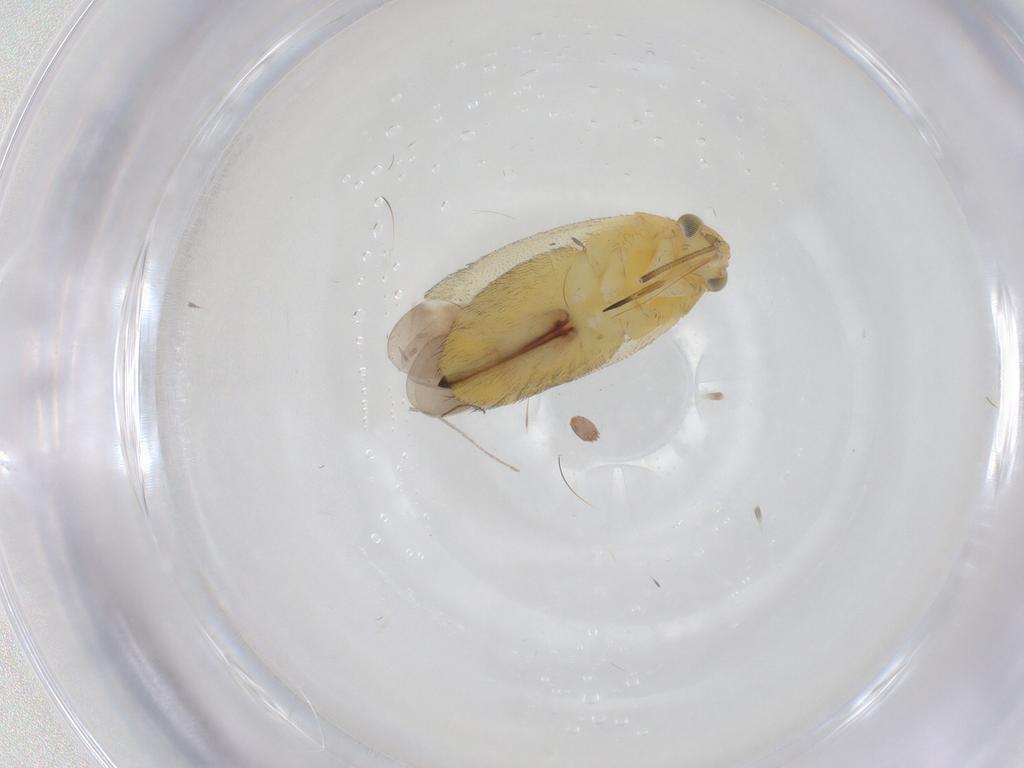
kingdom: Animalia
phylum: Arthropoda
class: Insecta
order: Hemiptera
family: Miridae
